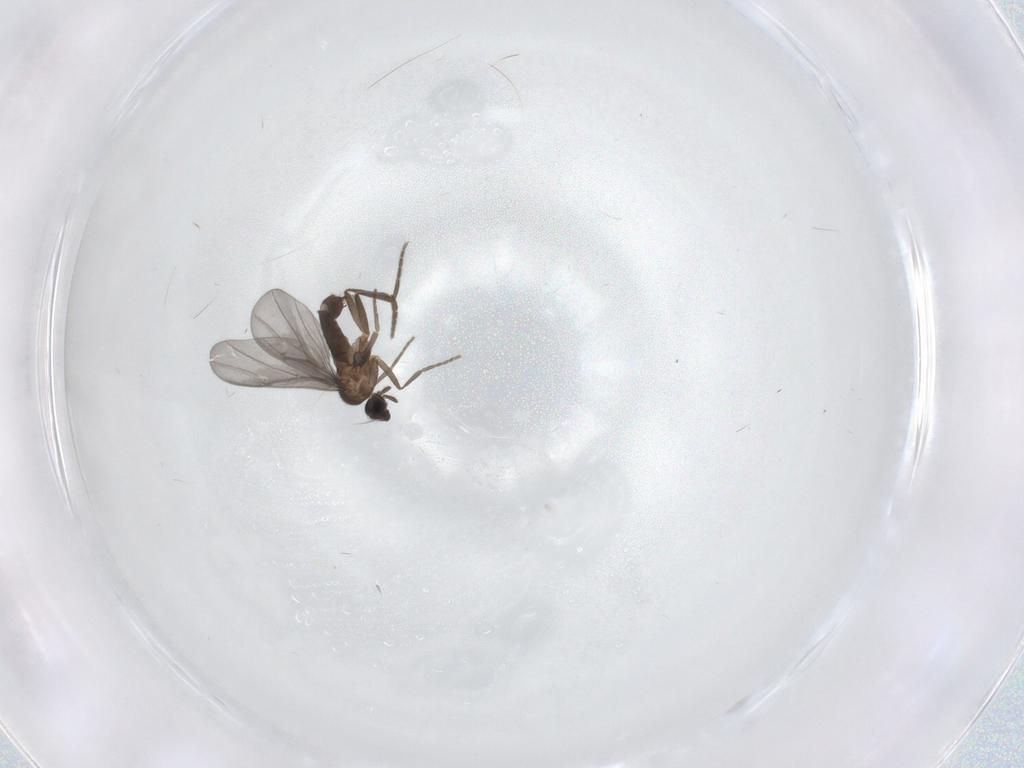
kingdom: Animalia
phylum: Arthropoda
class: Insecta
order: Diptera
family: Phoridae
